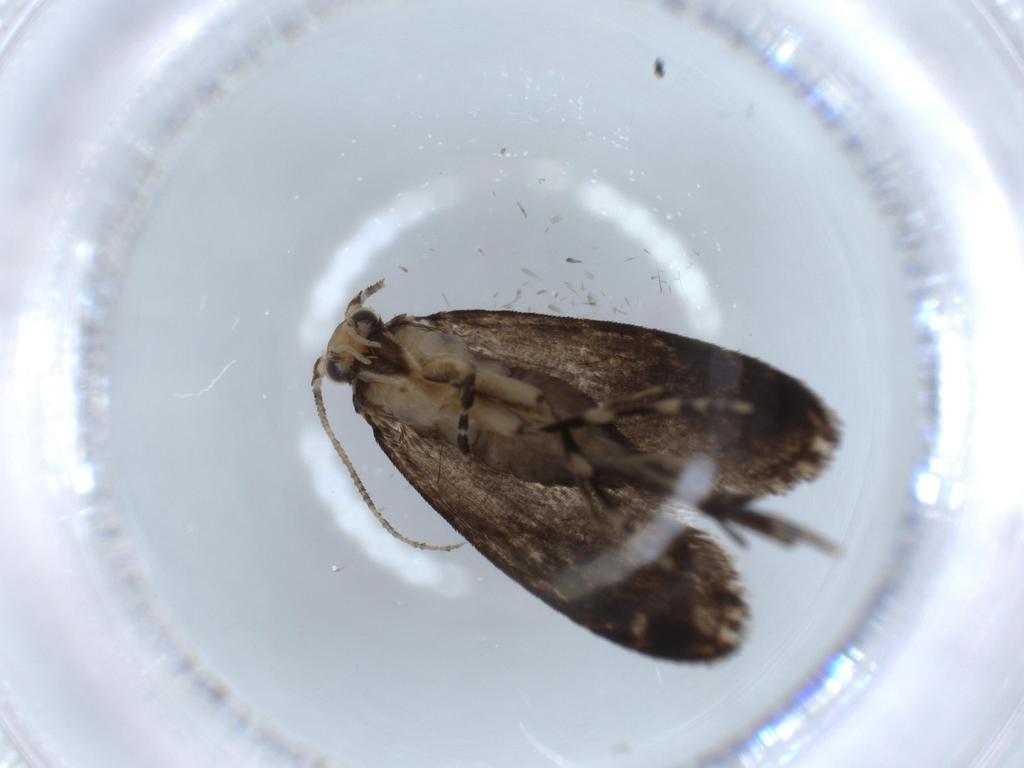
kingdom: Animalia
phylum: Arthropoda
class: Insecta
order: Lepidoptera
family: Tineidae
